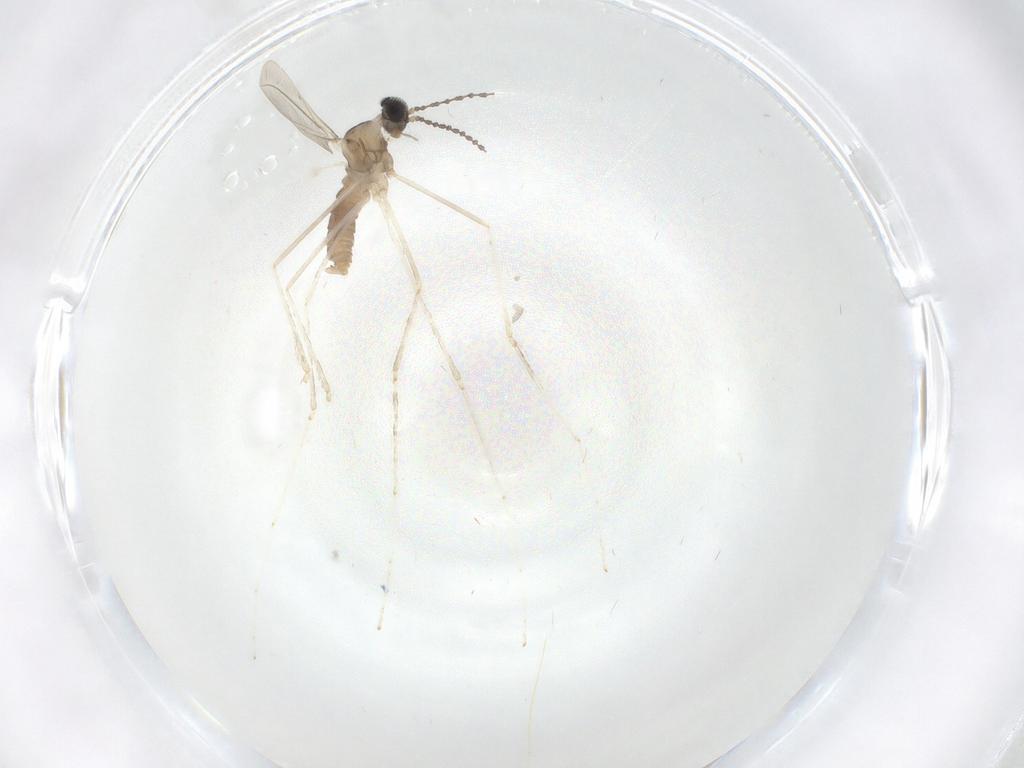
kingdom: Animalia
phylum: Arthropoda
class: Insecta
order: Diptera
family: Cecidomyiidae
